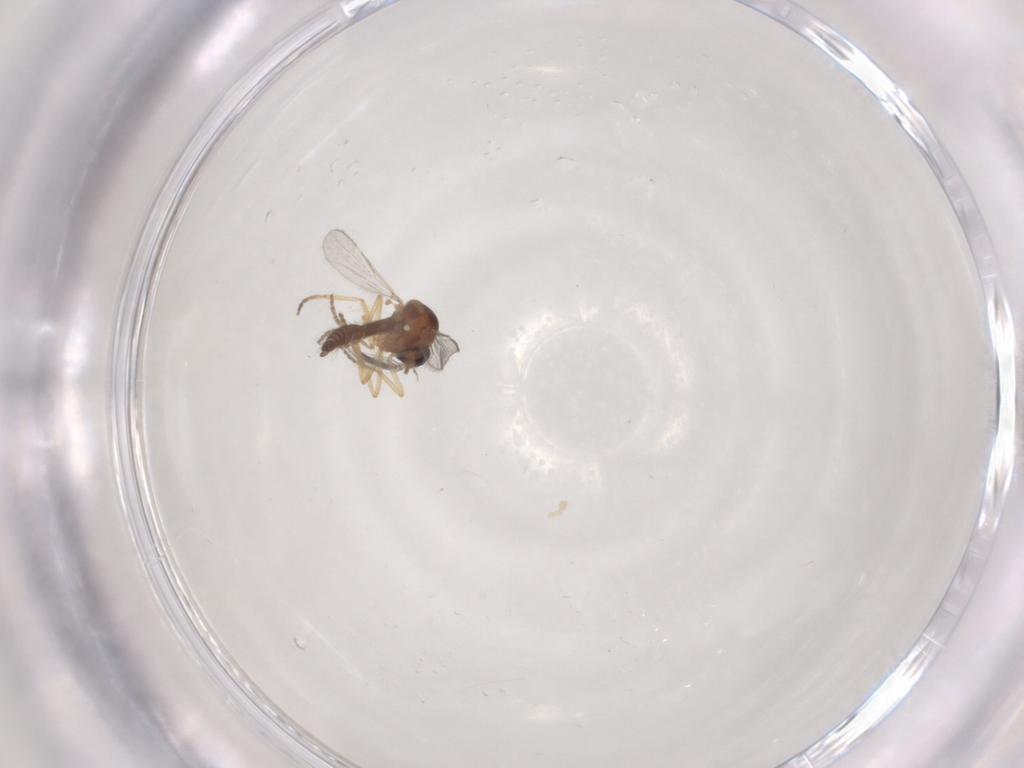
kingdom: Animalia
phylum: Arthropoda
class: Insecta
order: Diptera
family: Ceratopogonidae
